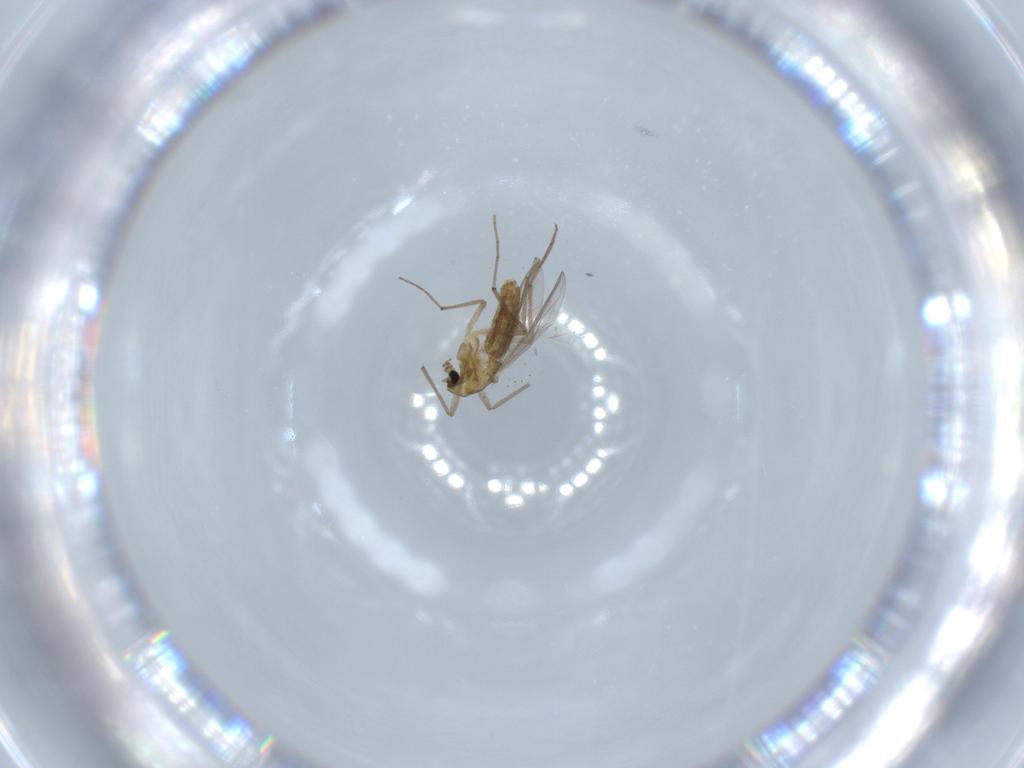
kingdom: Animalia
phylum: Arthropoda
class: Insecta
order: Diptera
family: Chironomidae
